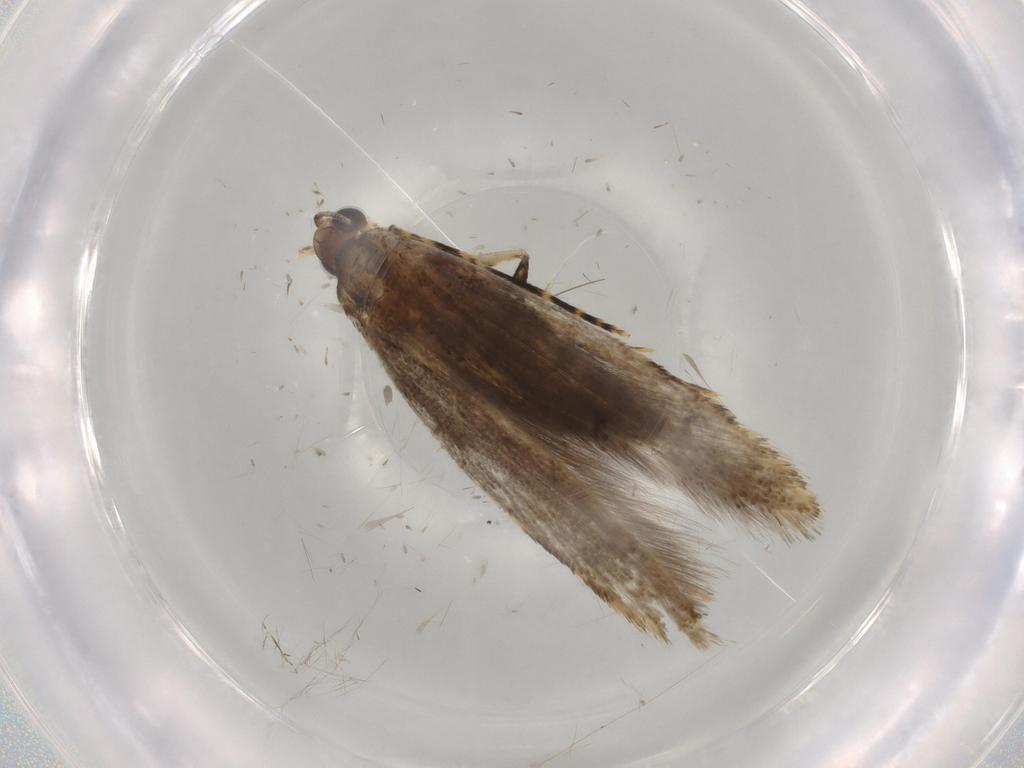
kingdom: Animalia
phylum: Arthropoda
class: Insecta
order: Lepidoptera
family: Tineidae
